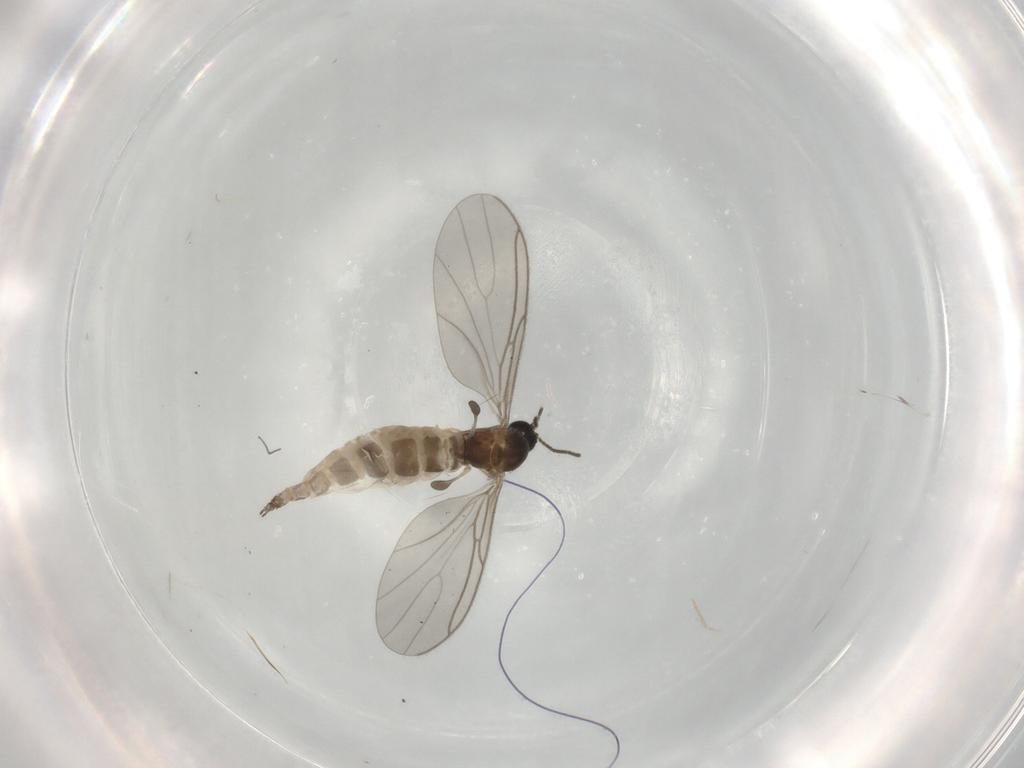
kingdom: Animalia
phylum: Arthropoda
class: Insecta
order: Diptera
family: Sciaridae
